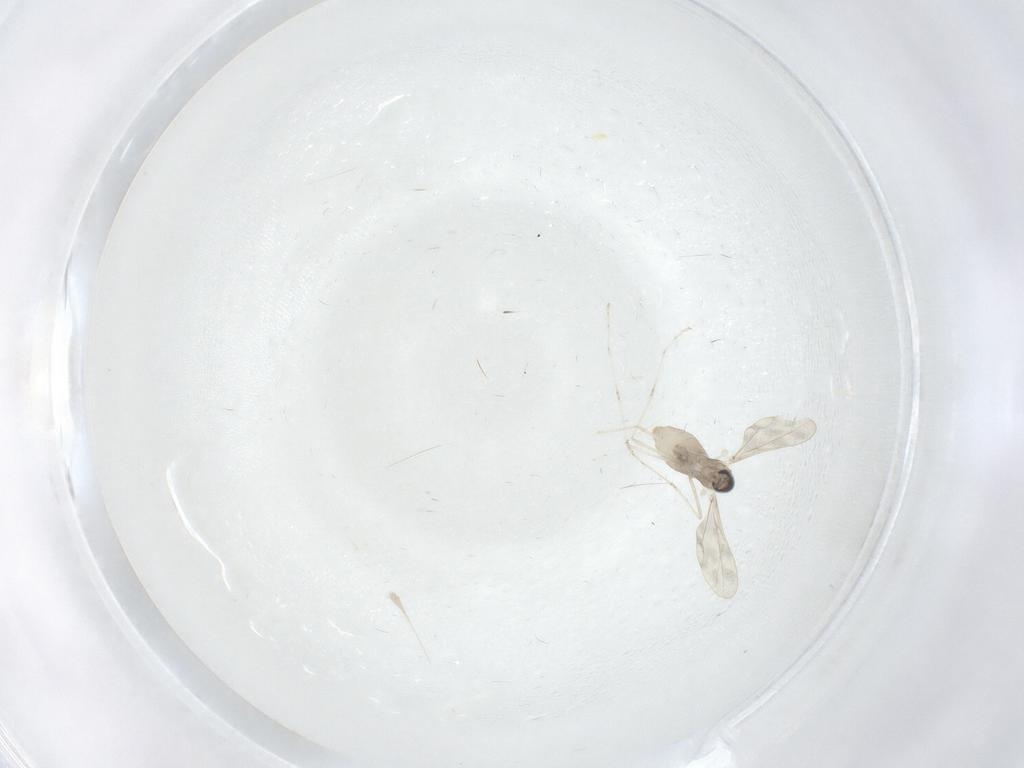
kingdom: Animalia
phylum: Arthropoda
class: Insecta
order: Diptera
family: Cecidomyiidae
